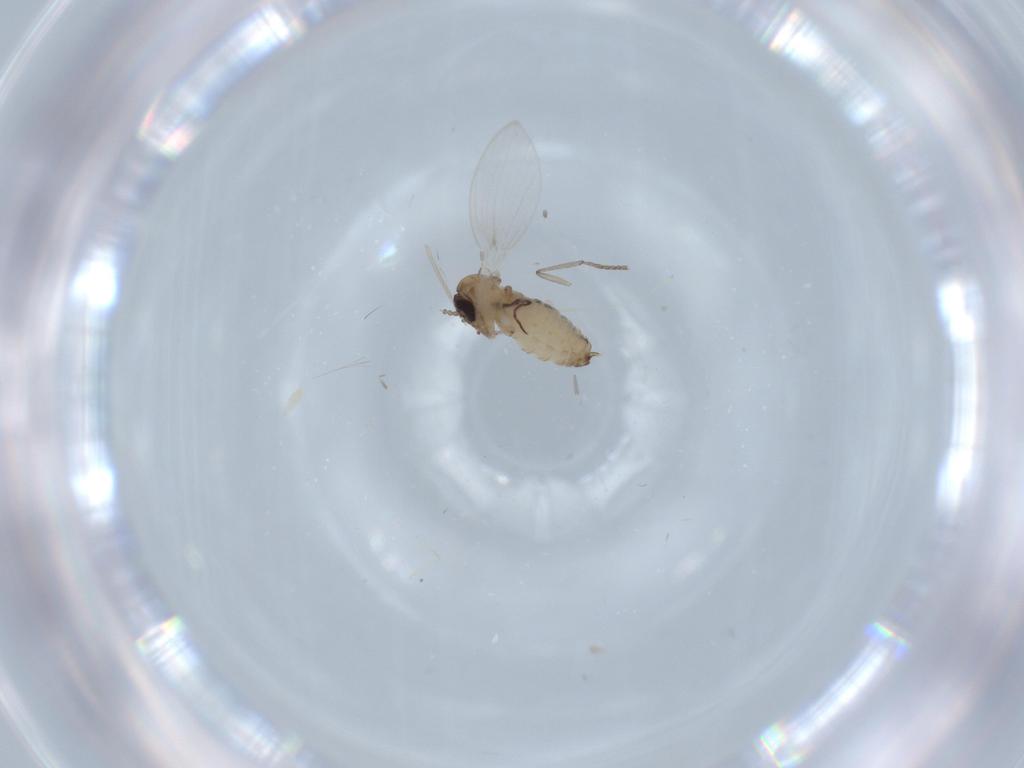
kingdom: Animalia
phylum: Arthropoda
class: Insecta
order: Diptera
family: Psychodidae
